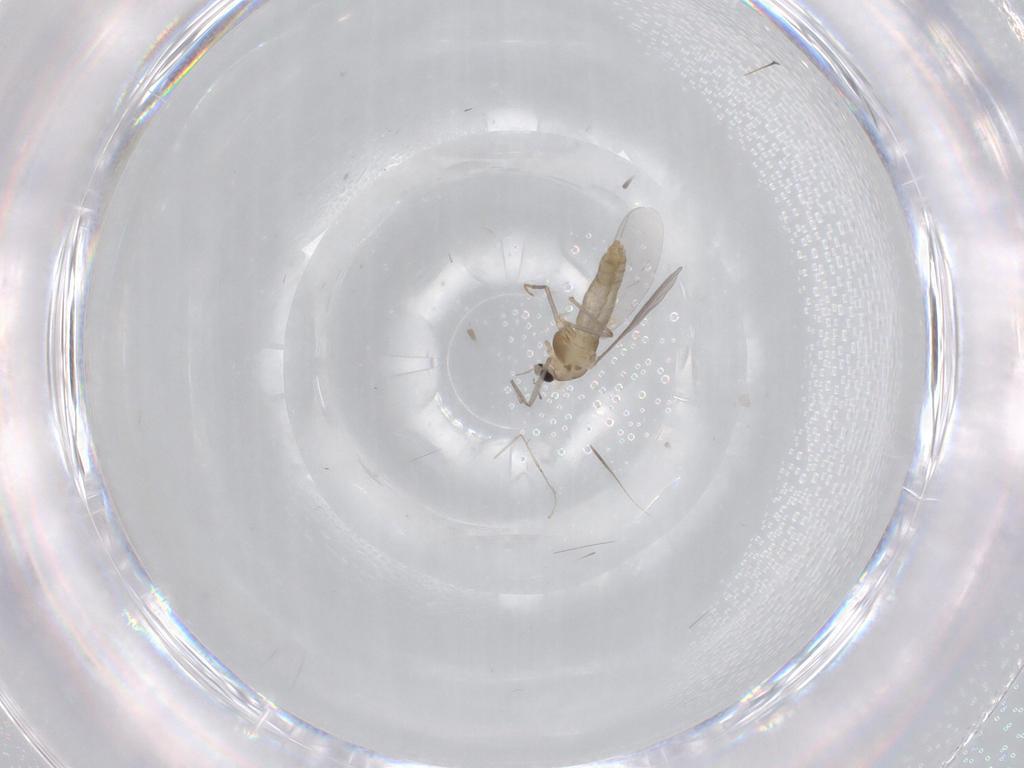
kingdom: Animalia
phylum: Arthropoda
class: Insecta
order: Diptera
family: Chironomidae
